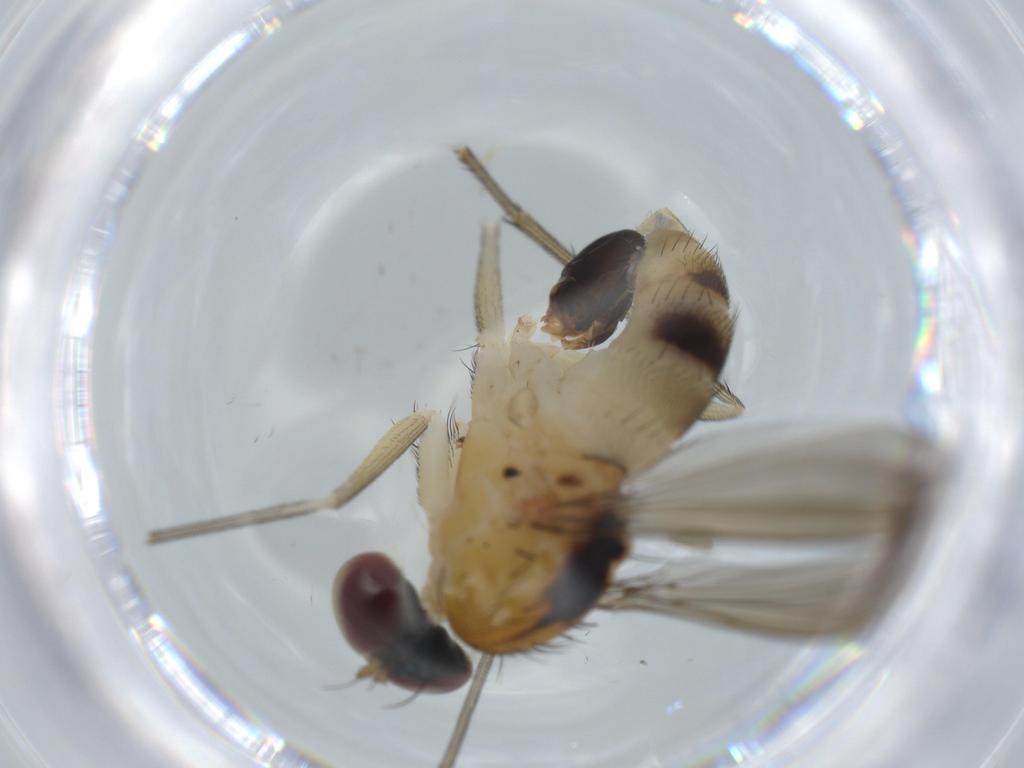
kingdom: Animalia
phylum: Arthropoda
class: Insecta
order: Diptera
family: Dolichopodidae
